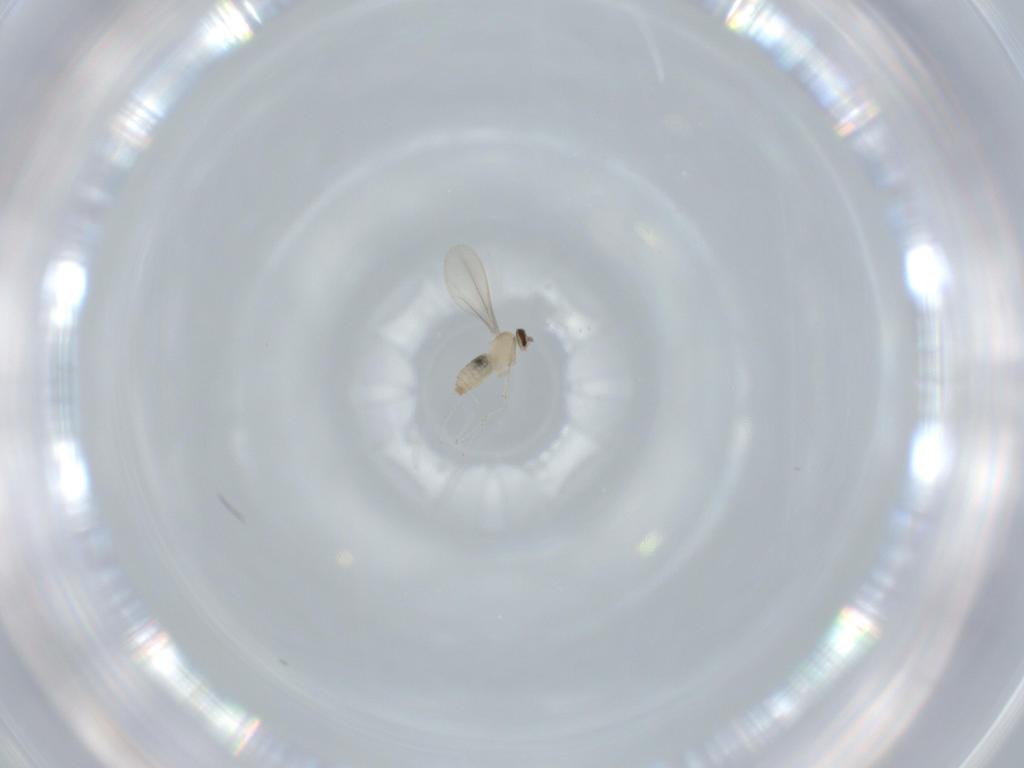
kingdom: Animalia
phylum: Arthropoda
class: Insecta
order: Diptera
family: Cecidomyiidae
